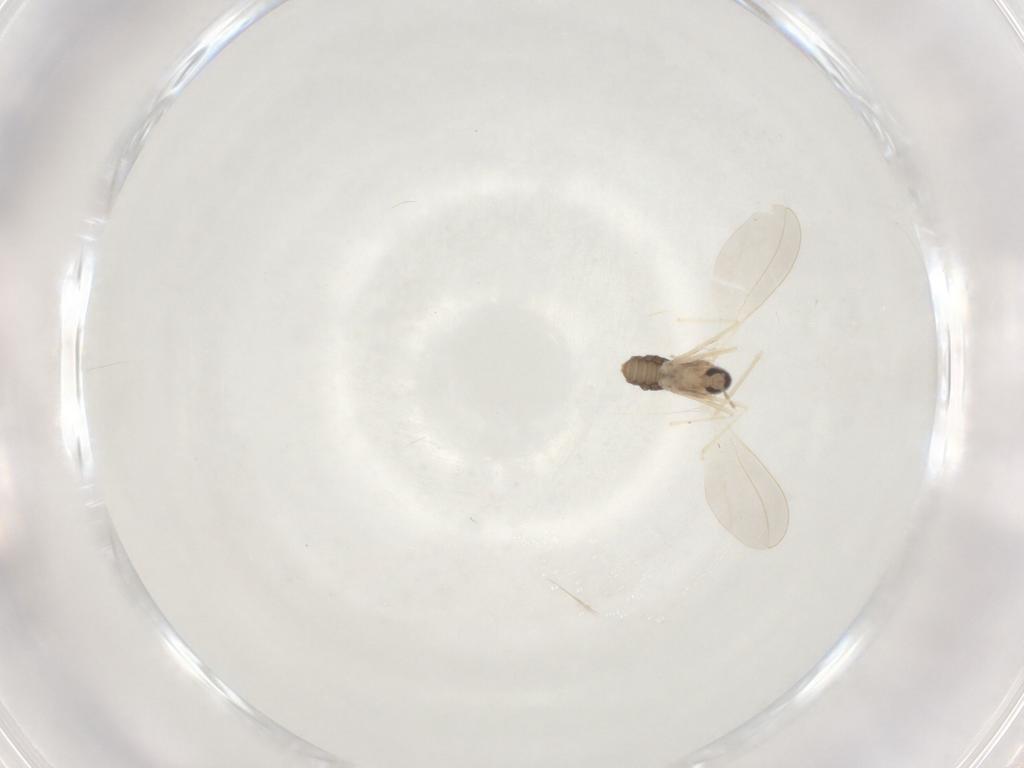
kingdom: Animalia
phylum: Arthropoda
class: Insecta
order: Diptera
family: Cecidomyiidae
